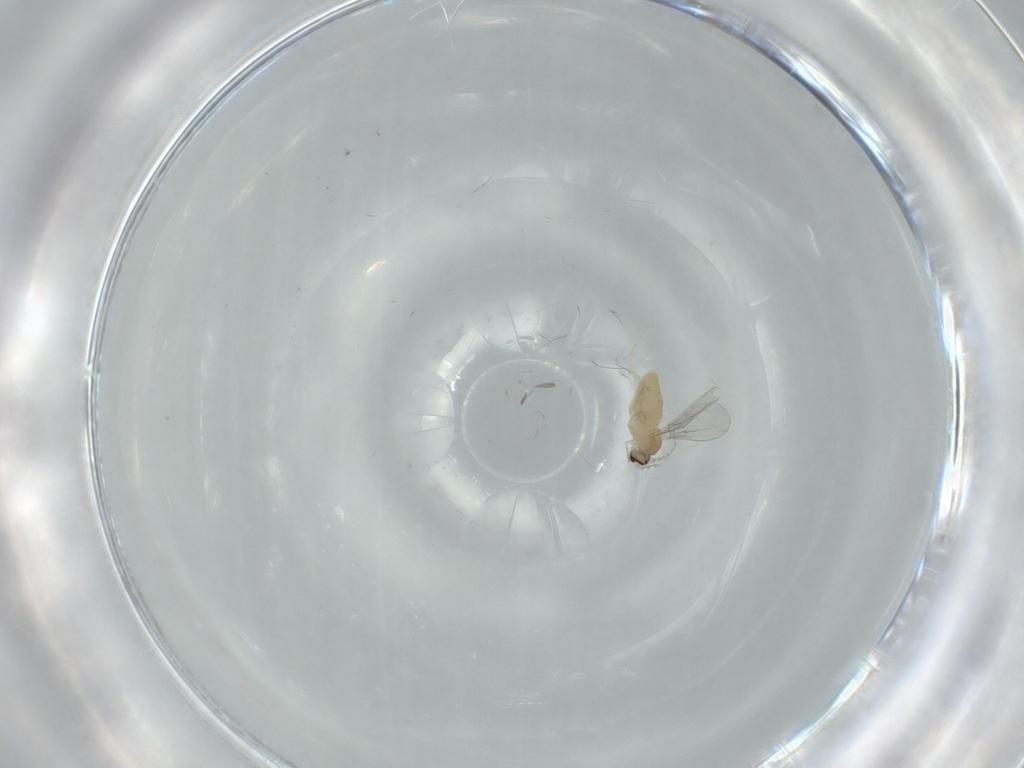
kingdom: Animalia
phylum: Arthropoda
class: Insecta
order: Diptera
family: Cecidomyiidae
